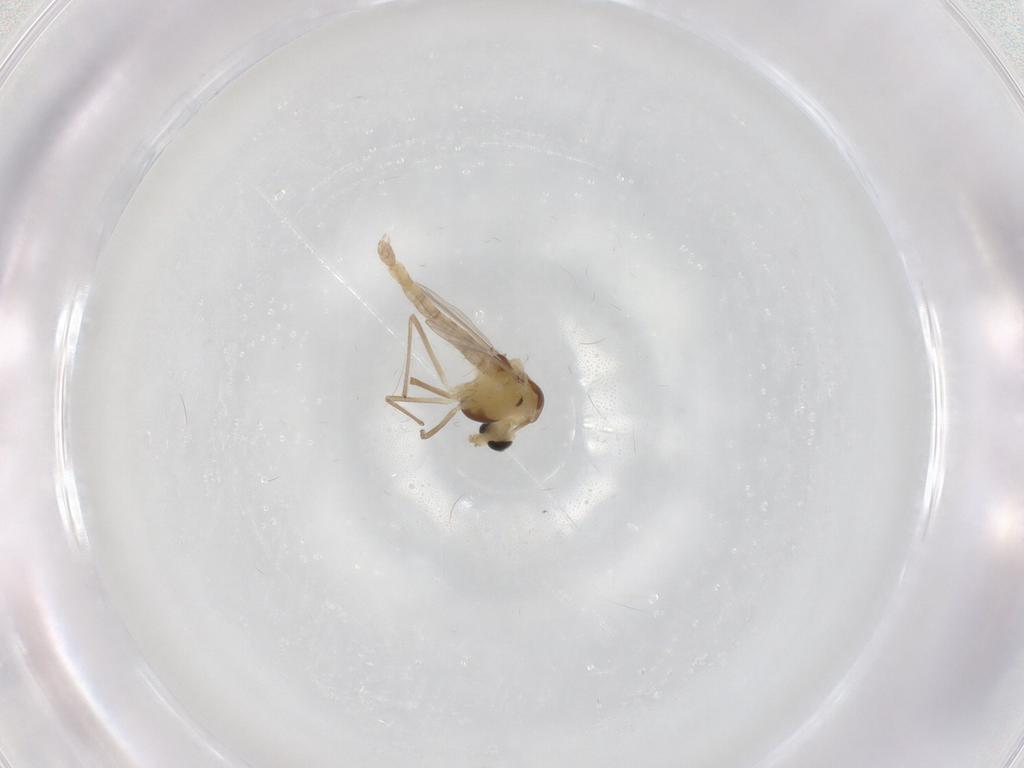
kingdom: Animalia
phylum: Arthropoda
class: Insecta
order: Diptera
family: Chironomidae
